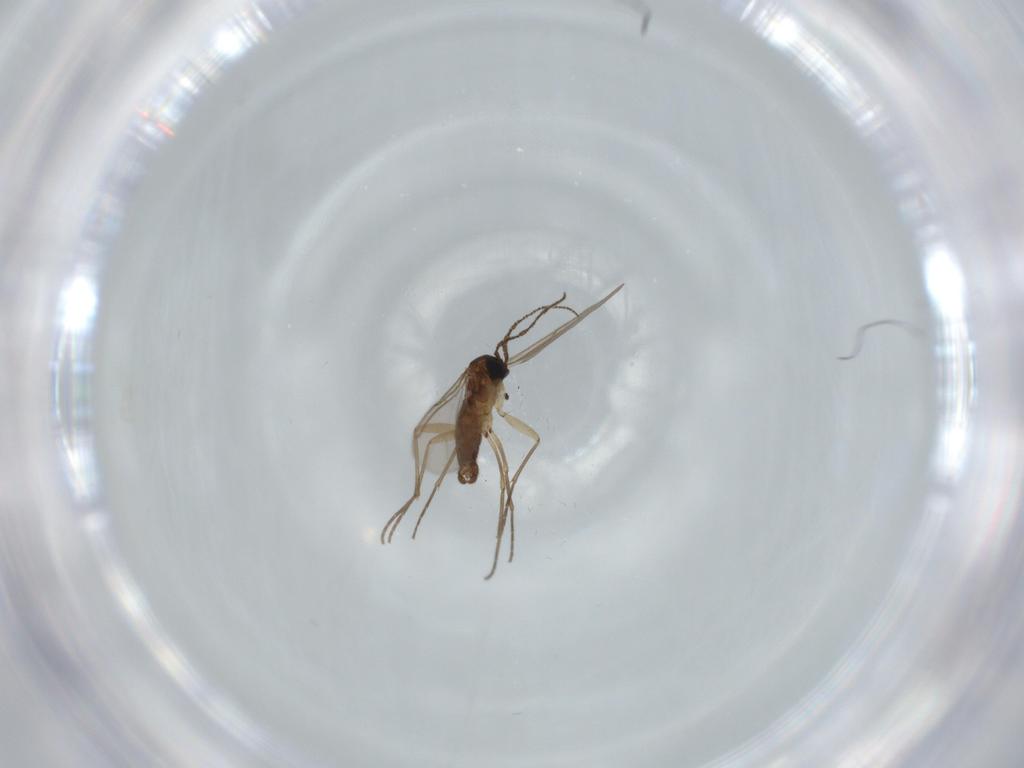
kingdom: Animalia
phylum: Arthropoda
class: Insecta
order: Diptera
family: Sciaridae
